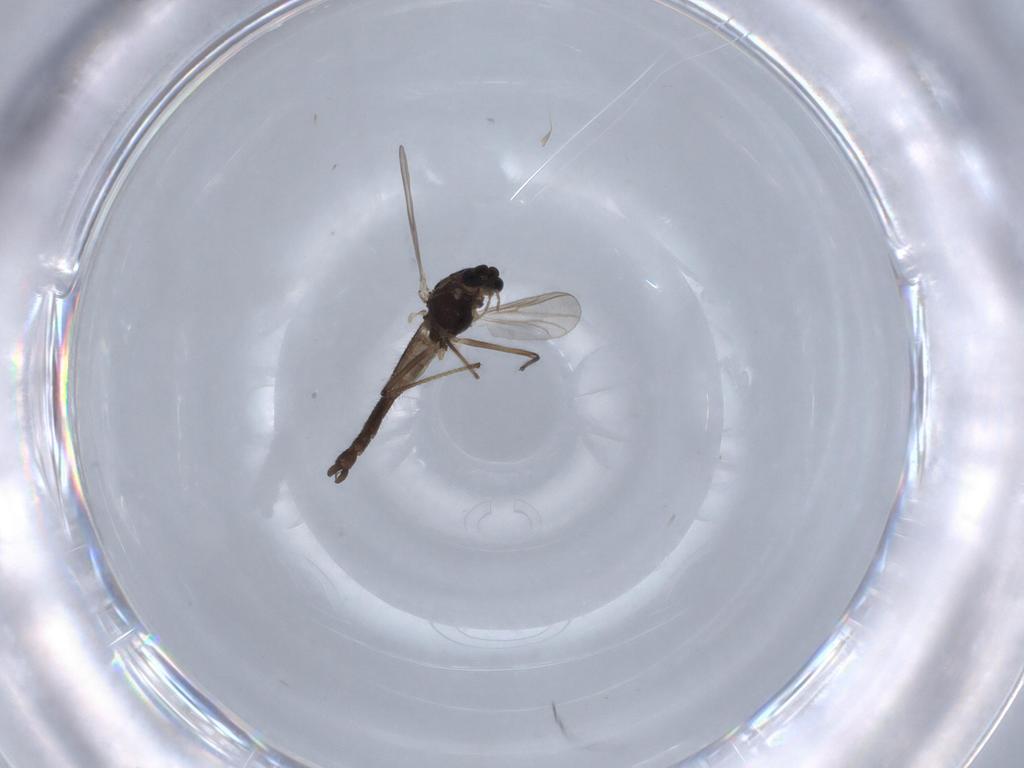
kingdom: Animalia
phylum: Arthropoda
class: Insecta
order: Diptera
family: Chironomidae
